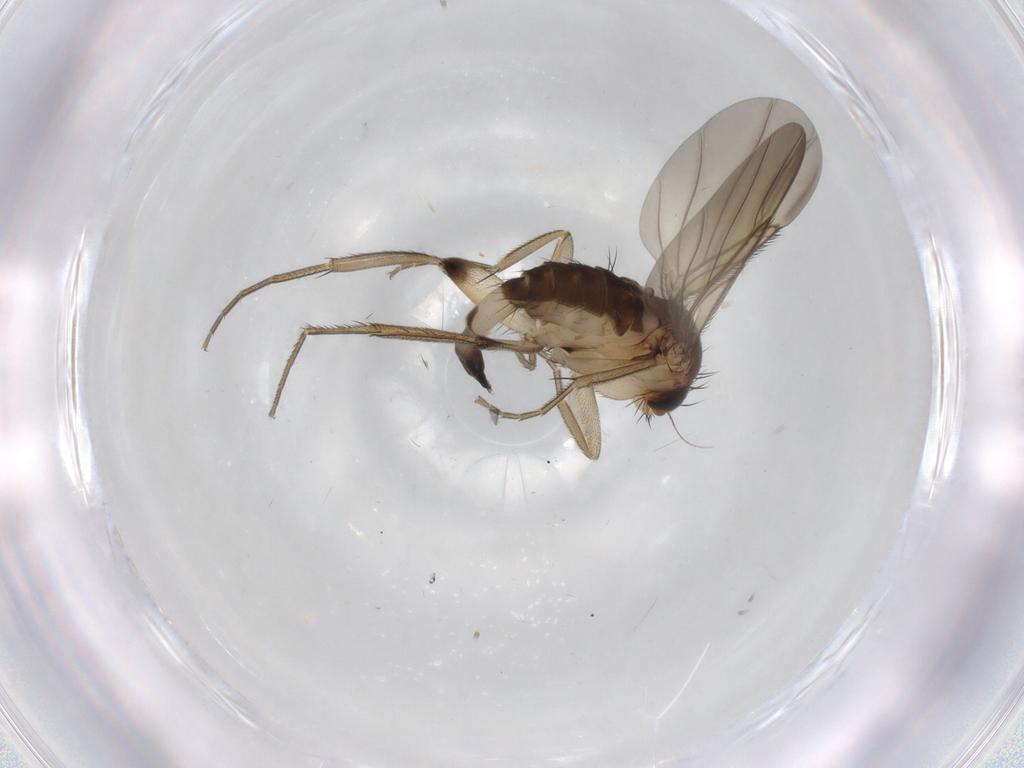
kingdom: Animalia
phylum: Arthropoda
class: Insecta
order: Diptera
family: Phoridae
